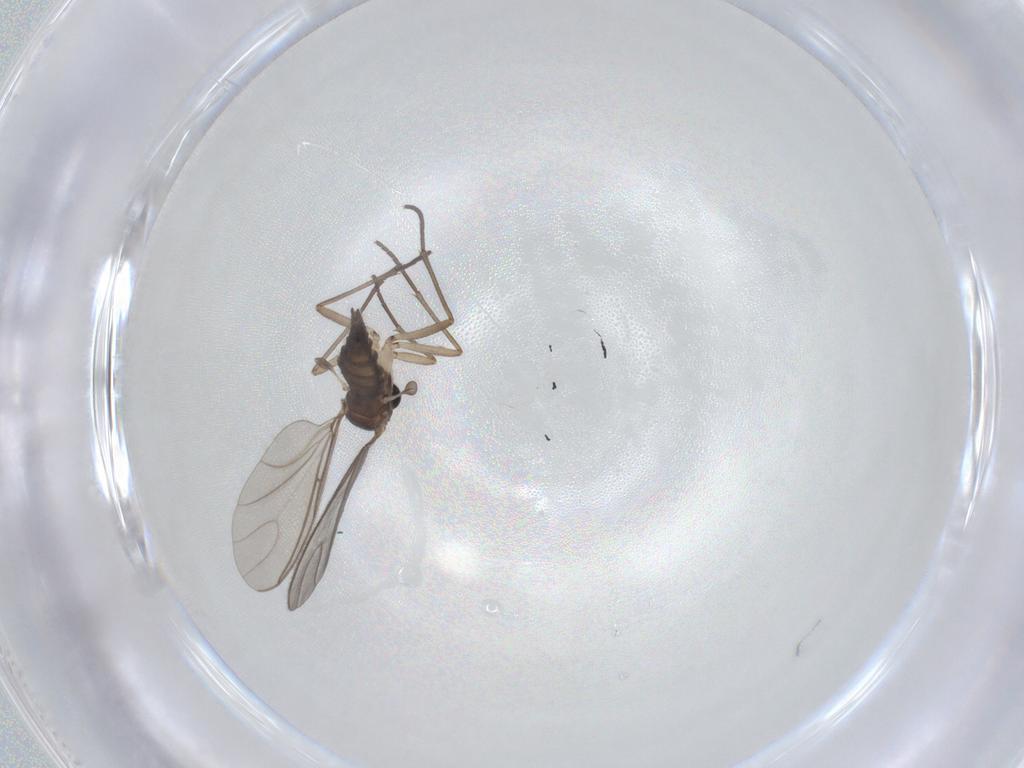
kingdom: Animalia
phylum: Arthropoda
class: Insecta
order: Diptera
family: Sciaridae
